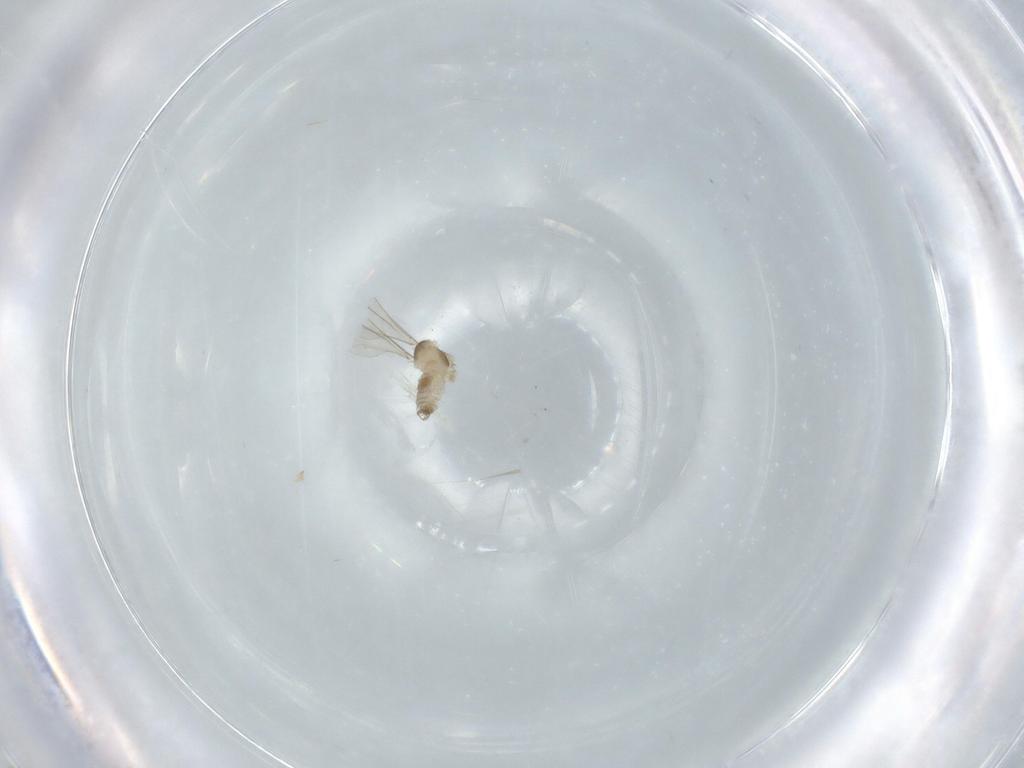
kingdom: Animalia
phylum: Arthropoda
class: Insecta
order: Diptera
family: Cecidomyiidae
